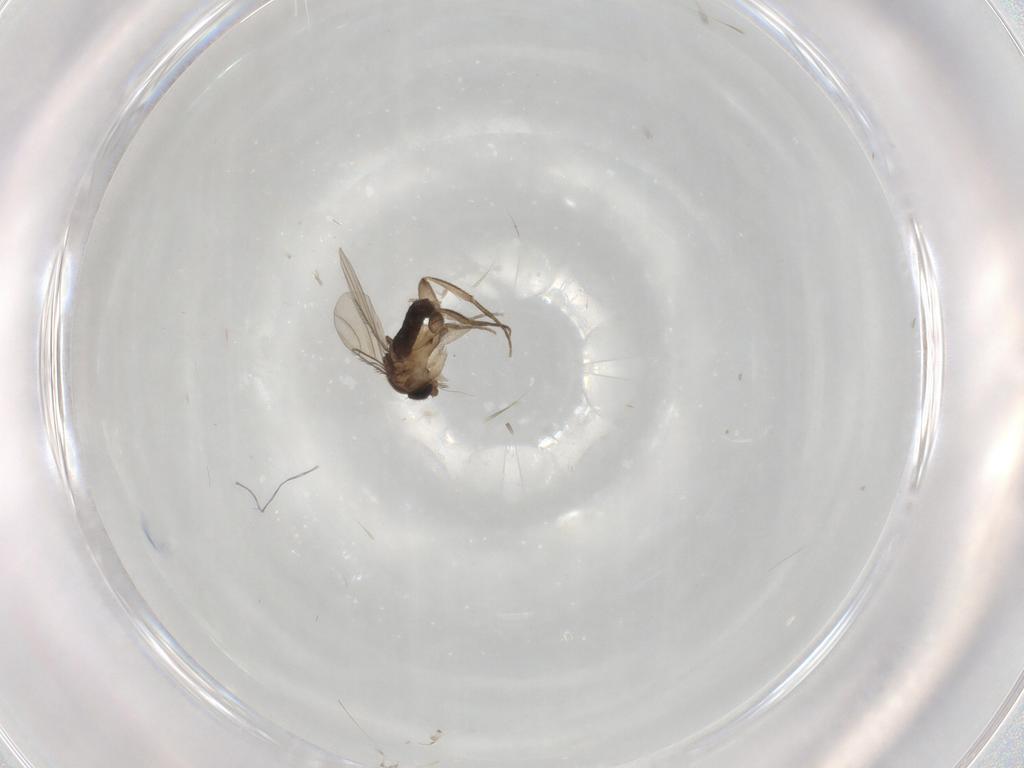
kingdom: Animalia
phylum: Arthropoda
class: Insecta
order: Diptera
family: Phoridae
